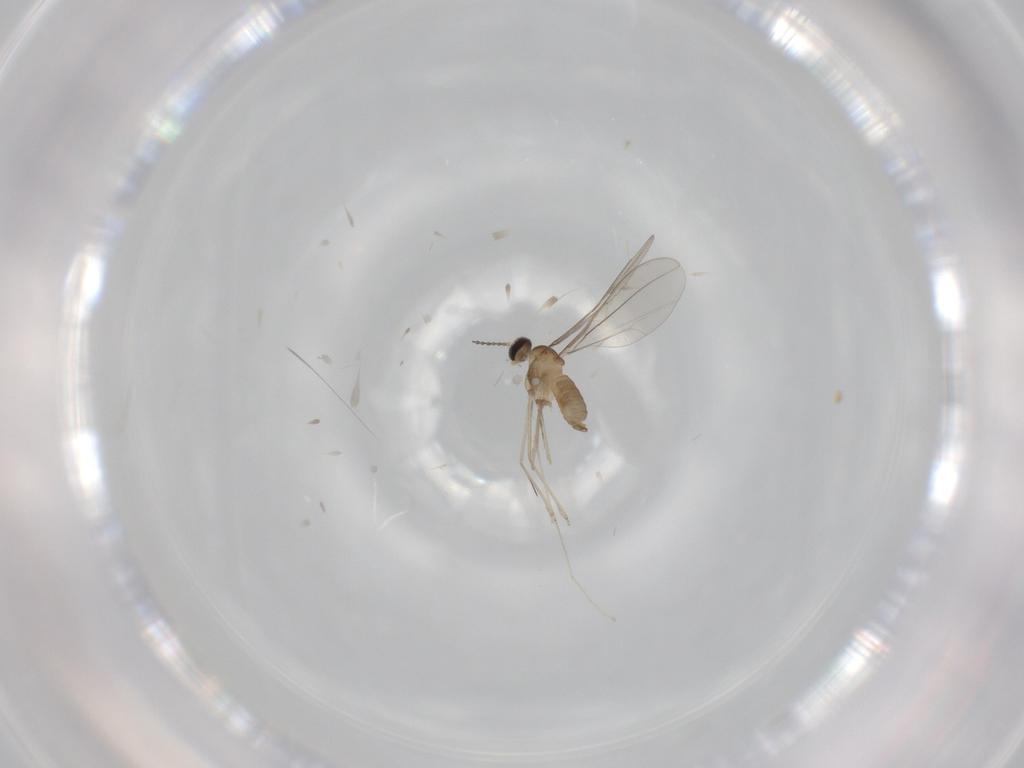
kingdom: Animalia
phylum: Arthropoda
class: Insecta
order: Diptera
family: Cecidomyiidae
